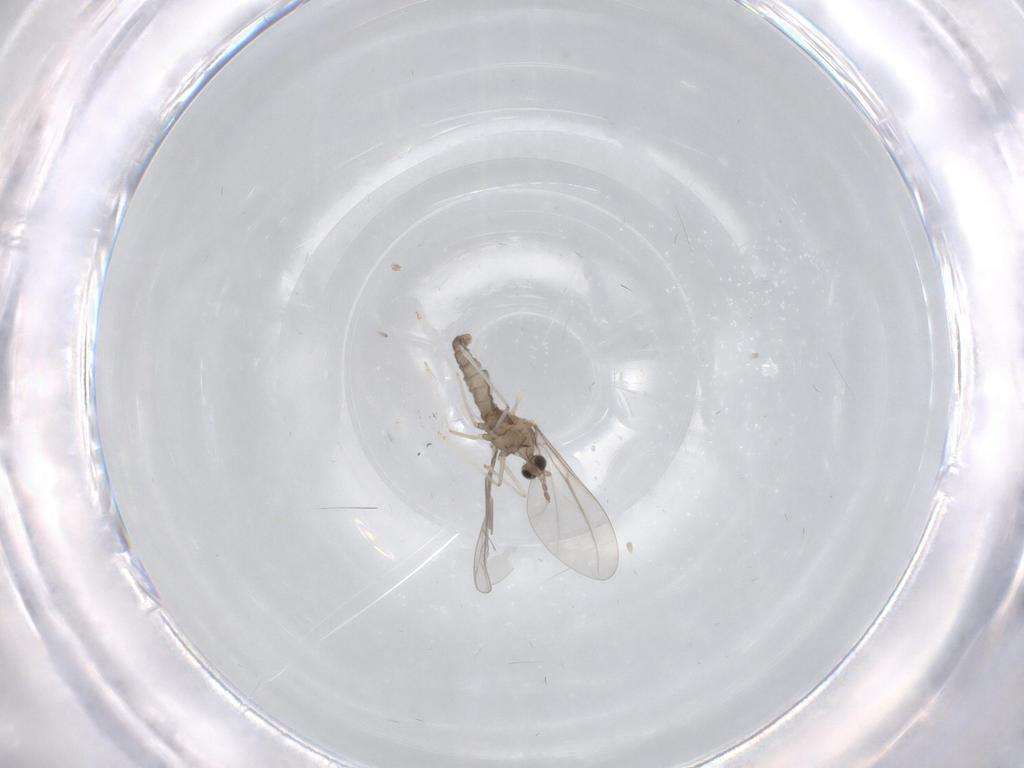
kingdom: Animalia
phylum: Arthropoda
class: Insecta
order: Diptera
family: Cecidomyiidae
